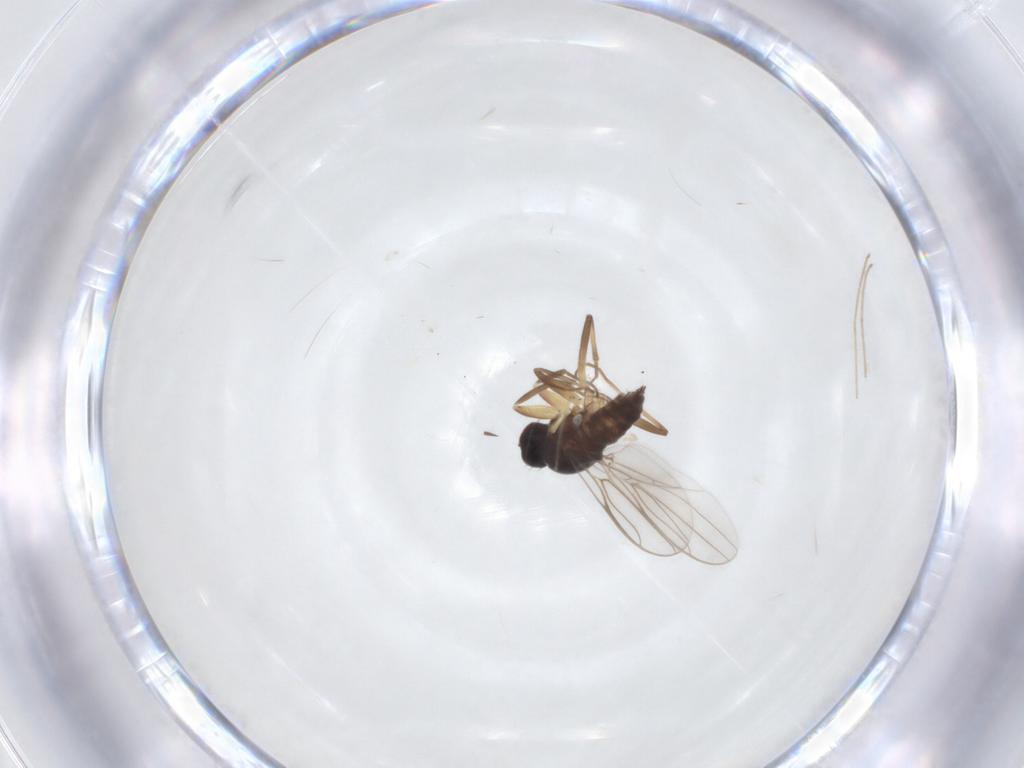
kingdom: Animalia
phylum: Arthropoda
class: Insecta
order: Diptera
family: Hybotidae
